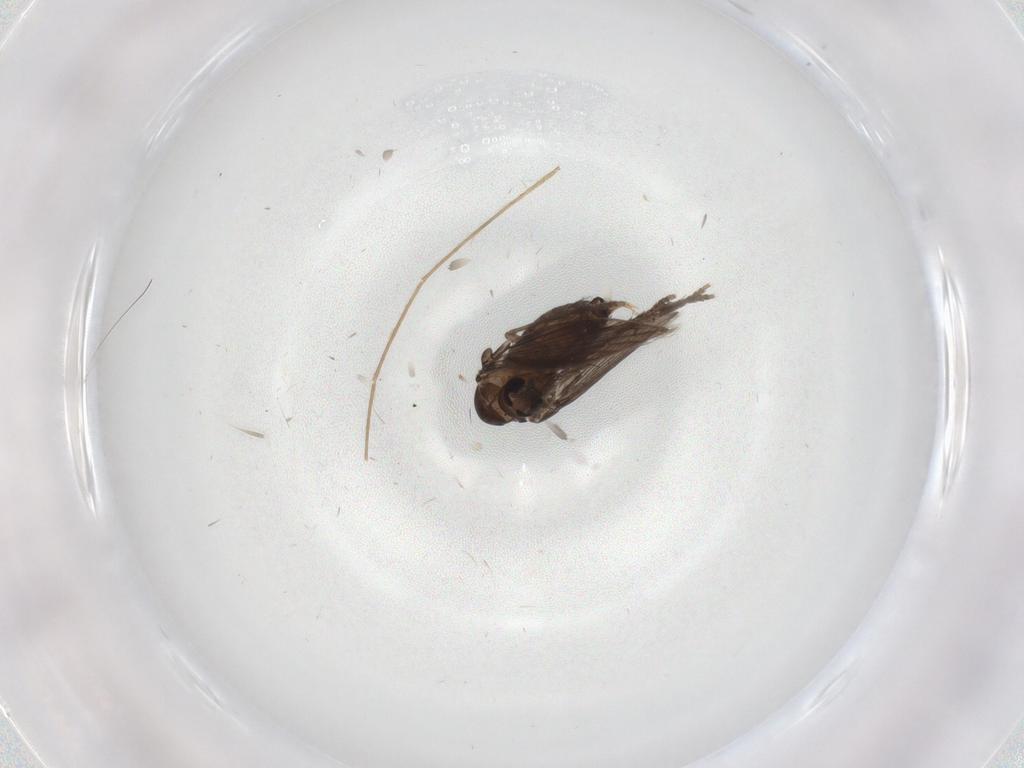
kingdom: Animalia
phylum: Arthropoda
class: Insecta
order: Diptera
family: Psychodidae
